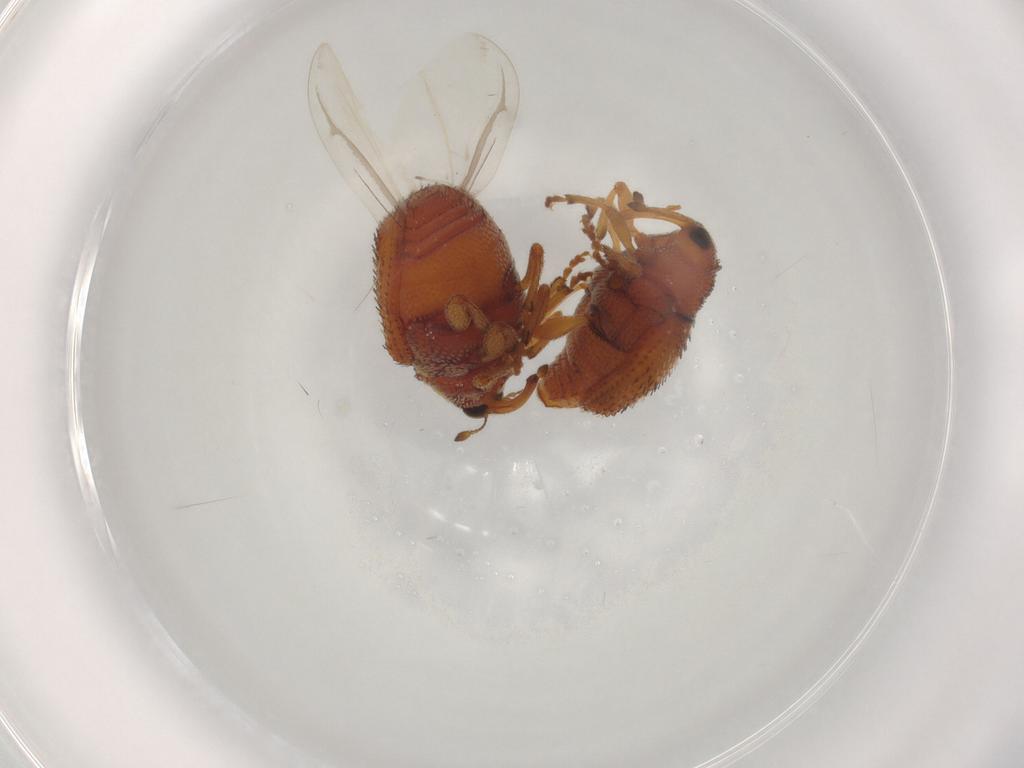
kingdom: Animalia
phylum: Arthropoda
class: Insecta
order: Coleoptera
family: Curculionidae
